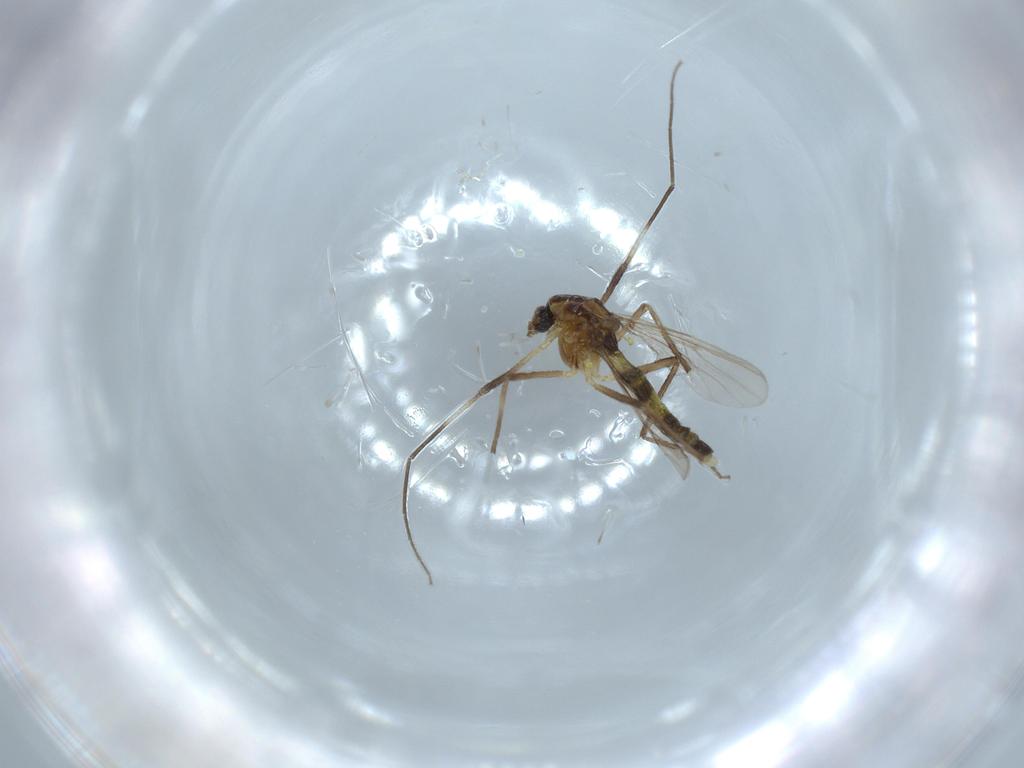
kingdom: Animalia
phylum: Arthropoda
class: Insecta
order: Diptera
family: Chironomidae
